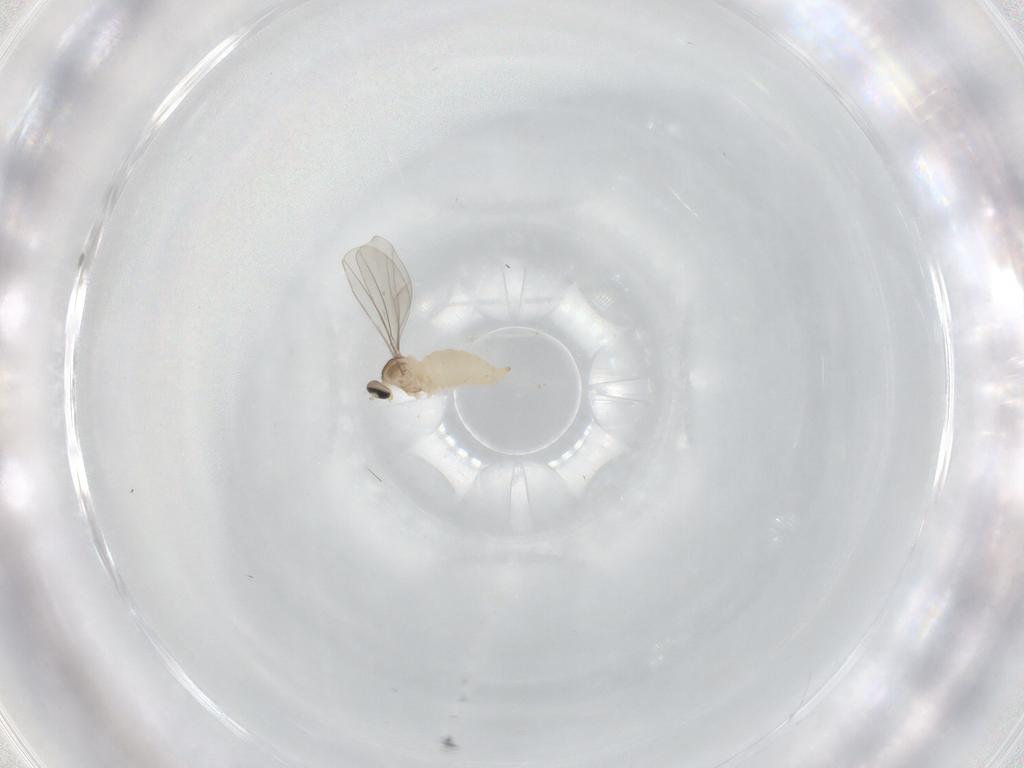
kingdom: Animalia
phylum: Arthropoda
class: Insecta
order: Diptera
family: Cecidomyiidae
